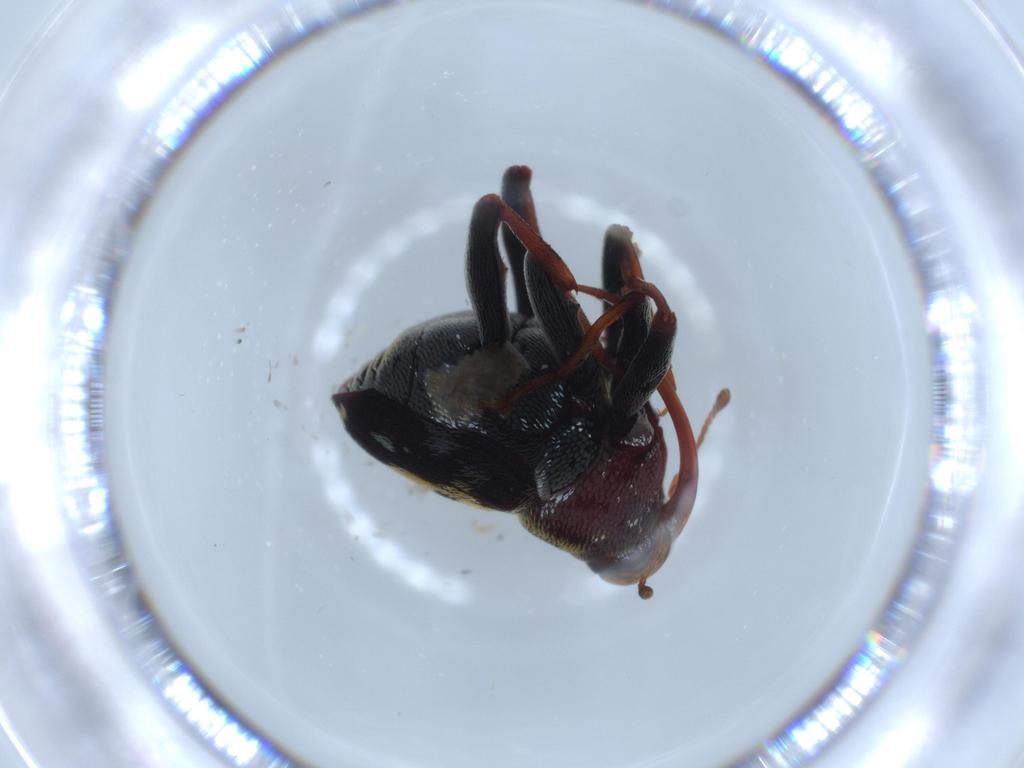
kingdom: Animalia
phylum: Arthropoda
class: Insecta
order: Coleoptera
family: Curculionidae
